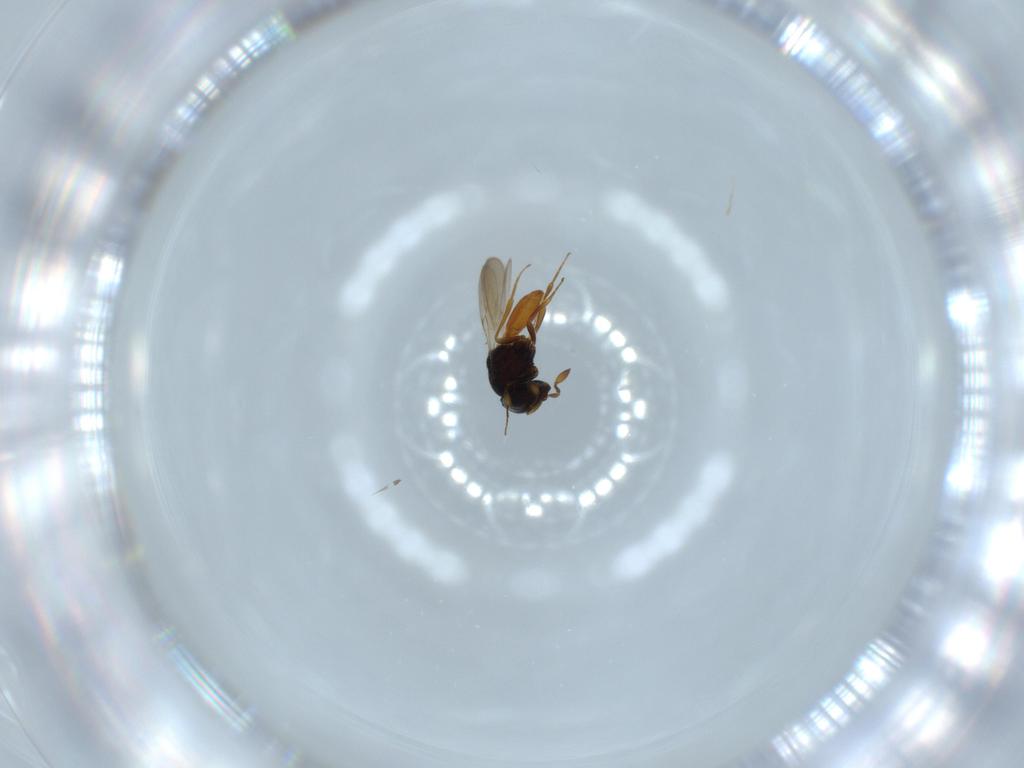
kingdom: Animalia
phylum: Arthropoda
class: Insecta
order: Hymenoptera
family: Scelionidae
